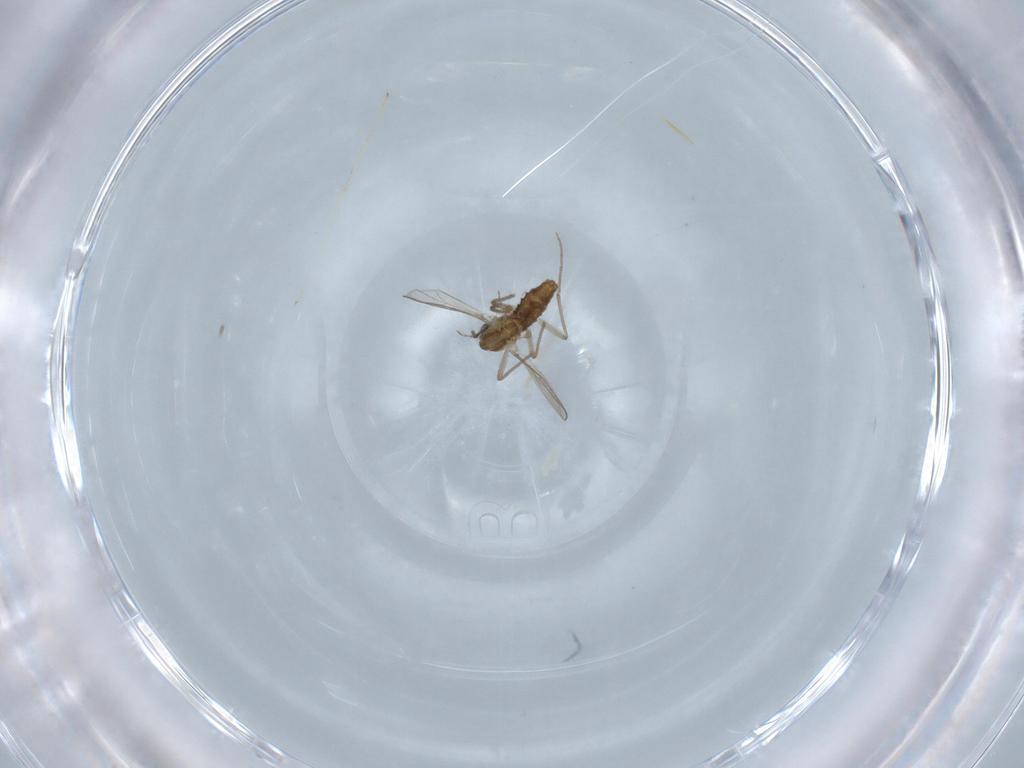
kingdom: Animalia
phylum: Arthropoda
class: Insecta
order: Diptera
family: Chironomidae
